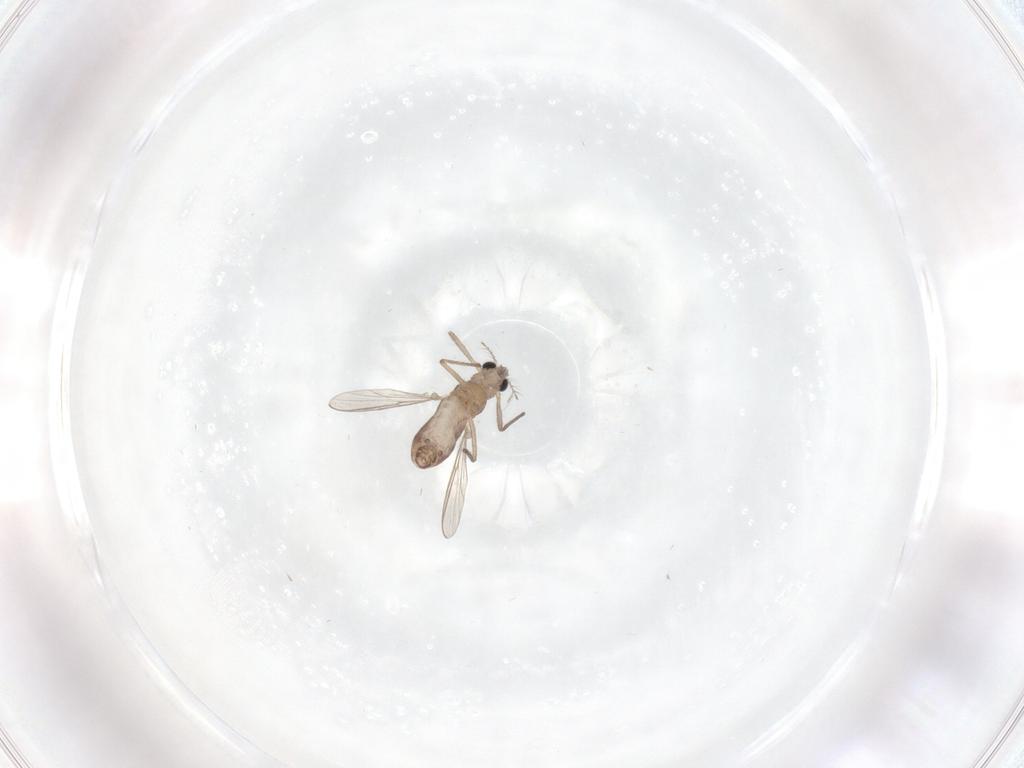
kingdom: Animalia
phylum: Arthropoda
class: Insecta
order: Diptera
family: Chironomidae
